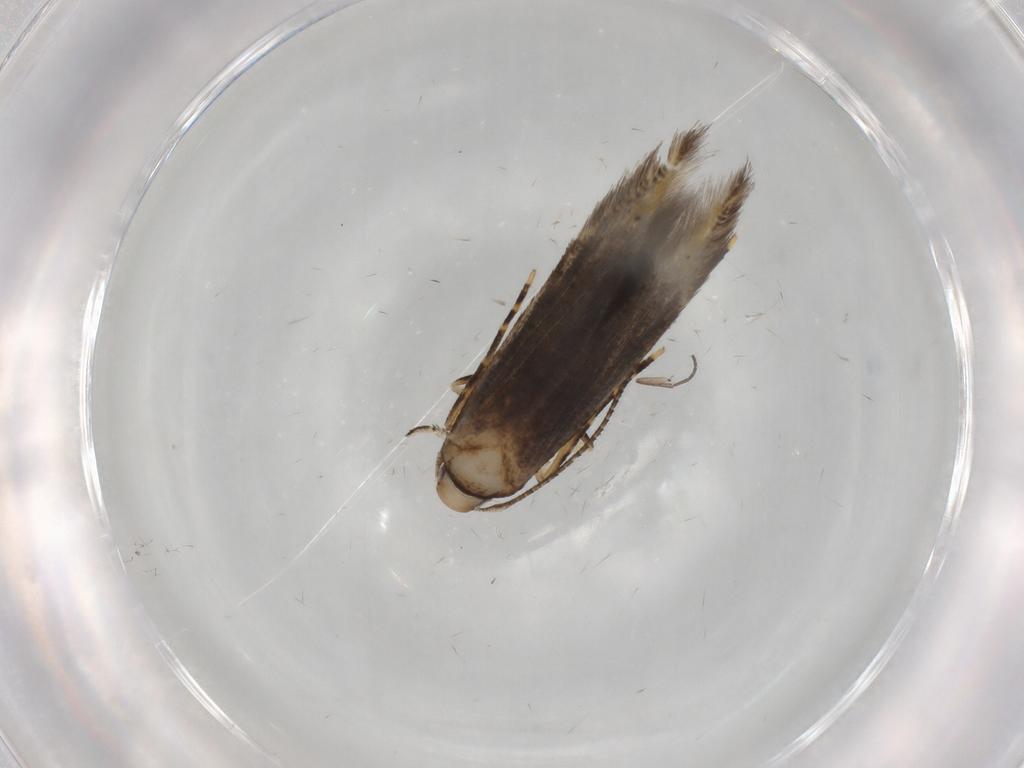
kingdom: Animalia
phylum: Arthropoda
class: Insecta
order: Lepidoptera
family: Cosmopterigidae
